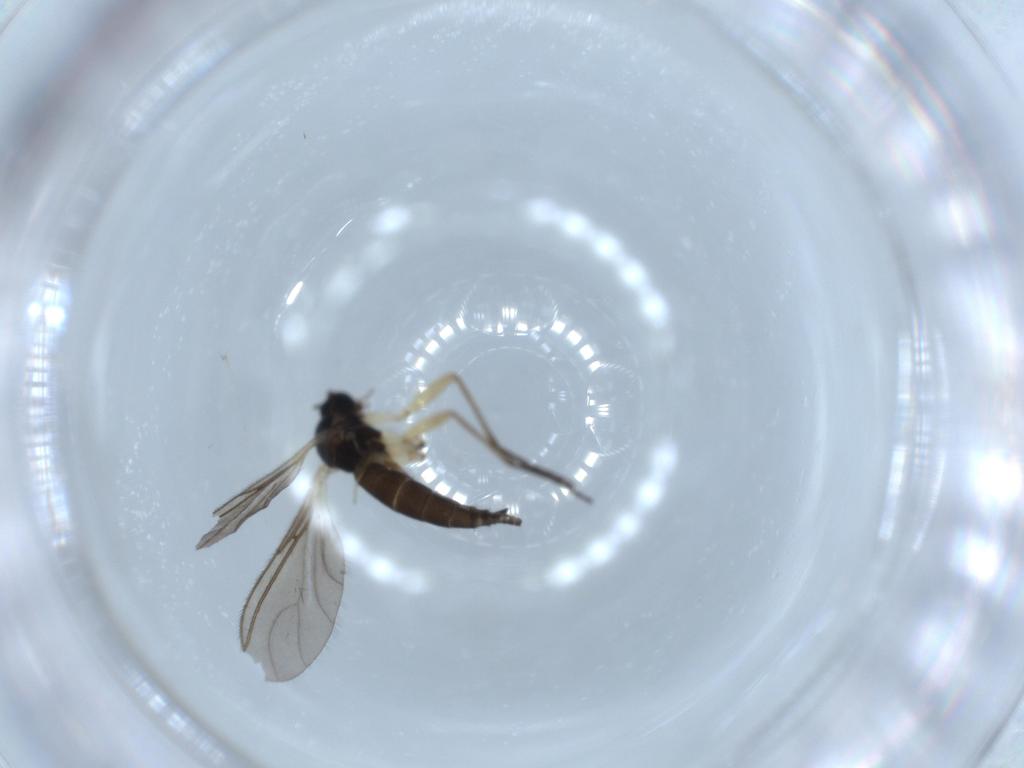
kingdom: Animalia
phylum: Arthropoda
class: Insecta
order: Diptera
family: Sciaridae
